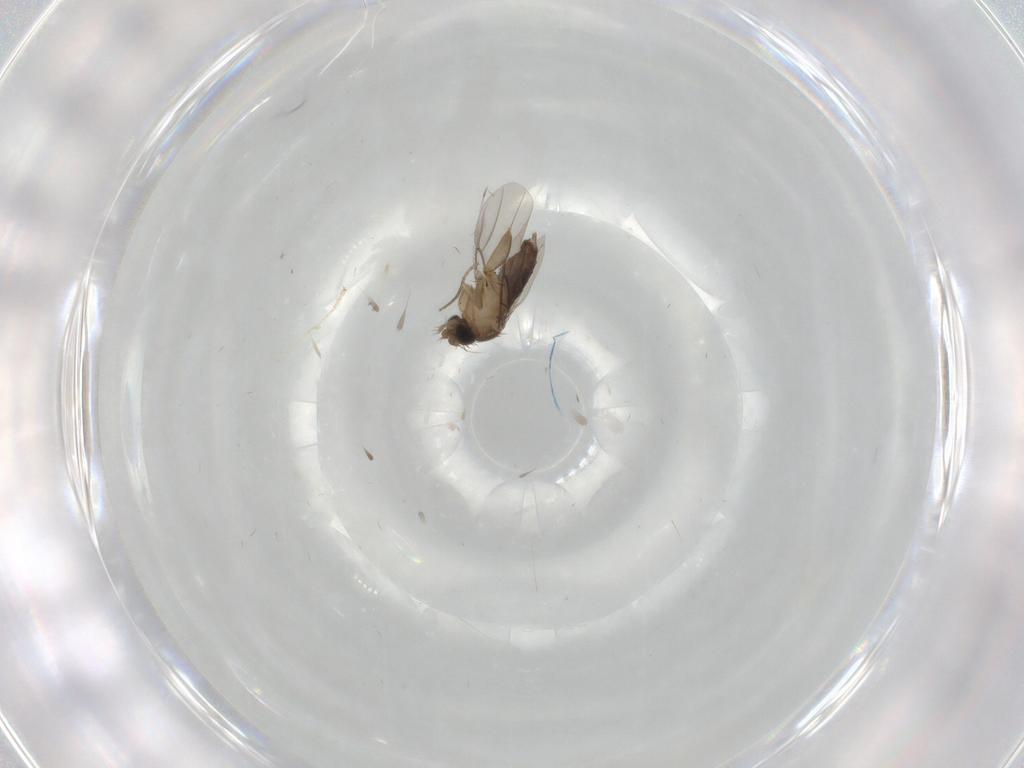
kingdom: Animalia
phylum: Arthropoda
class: Insecta
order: Diptera
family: Phoridae
